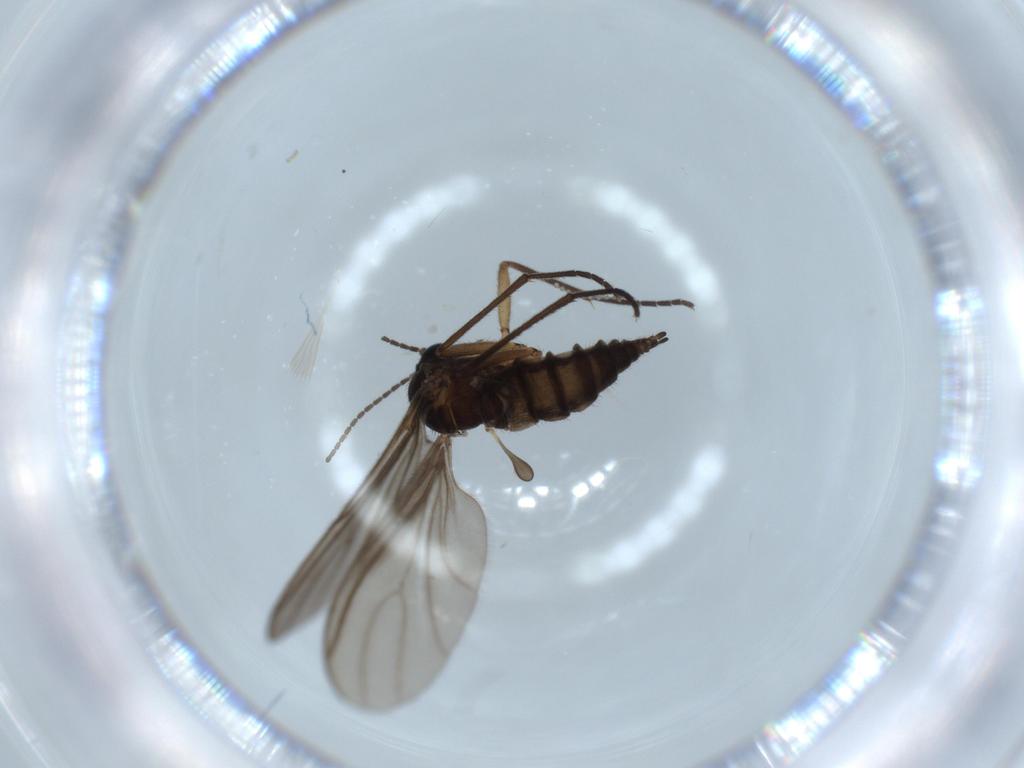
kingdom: Animalia
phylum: Arthropoda
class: Insecta
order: Diptera
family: Cecidomyiidae
